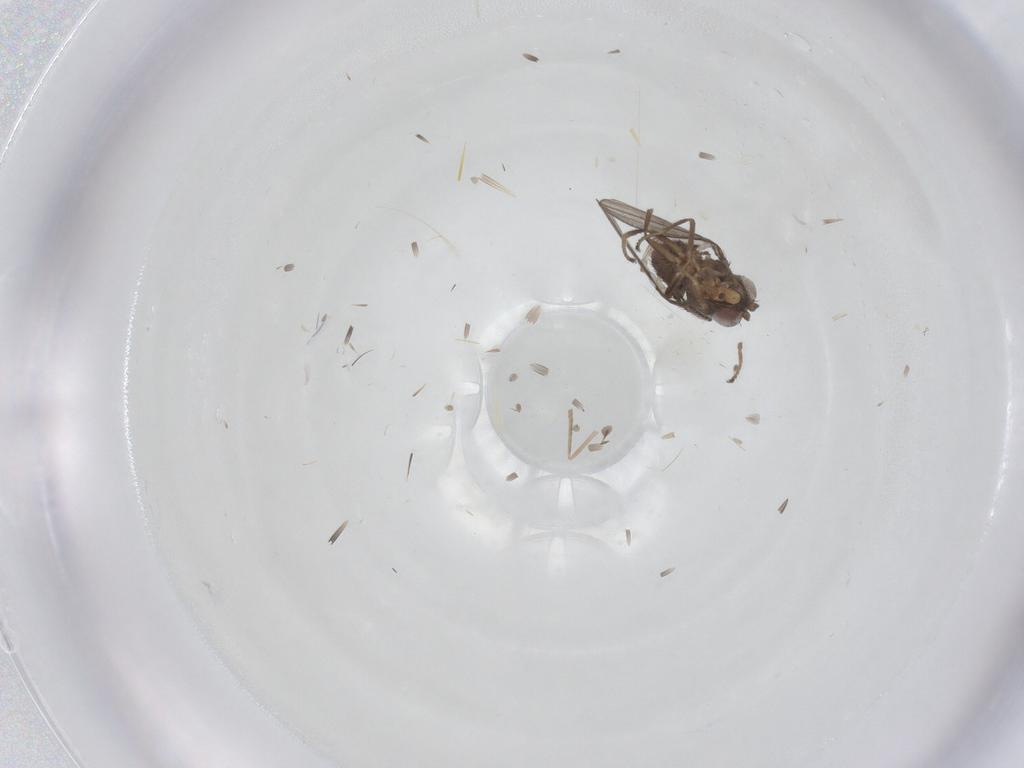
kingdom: Animalia
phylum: Arthropoda
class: Insecta
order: Diptera
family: Ephydridae
